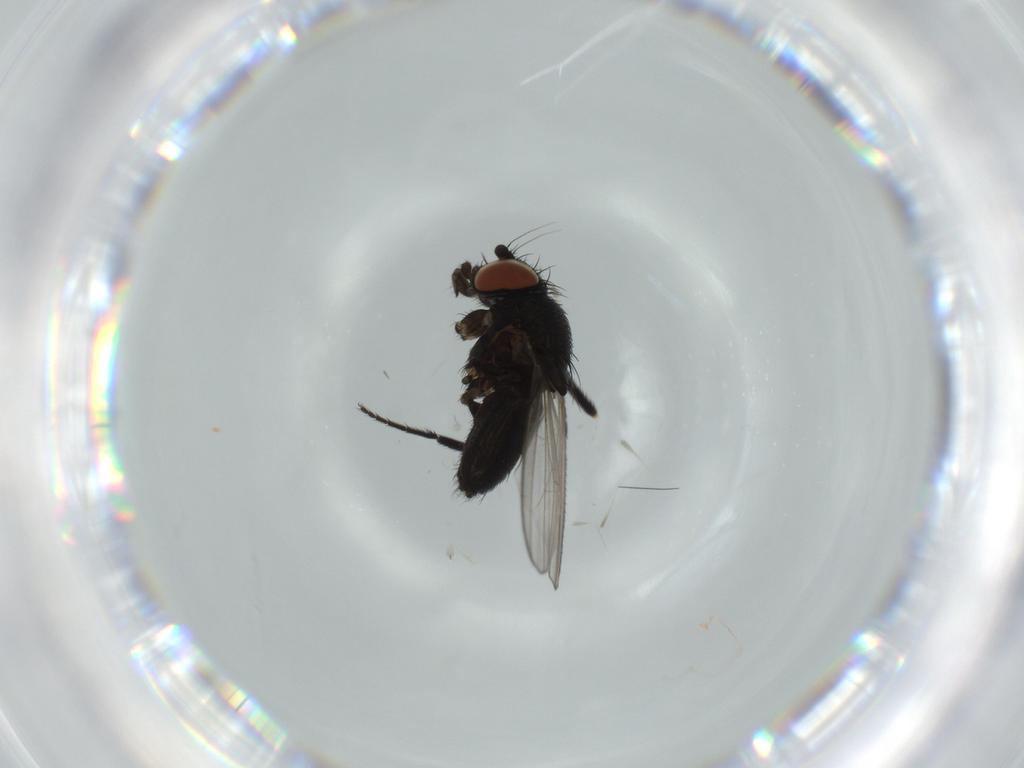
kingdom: Animalia
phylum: Arthropoda
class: Insecta
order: Diptera
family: Milichiidae
